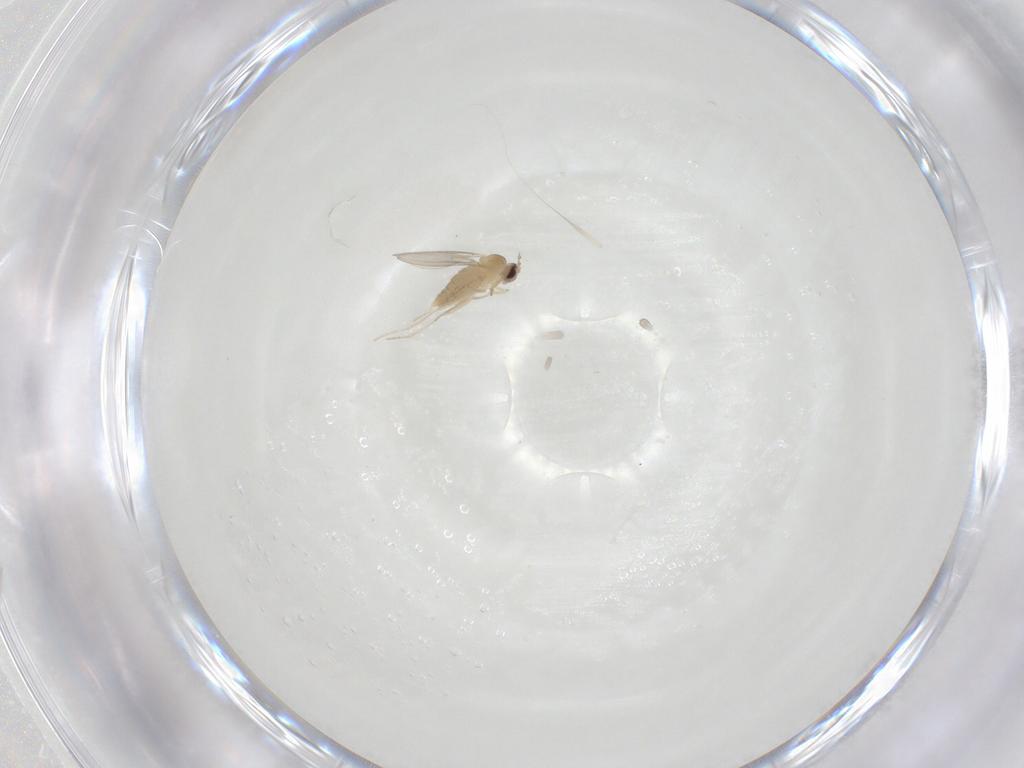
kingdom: Animalia
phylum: Arthropoda
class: Insecta
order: Diptera
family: Cecidomyiidae
